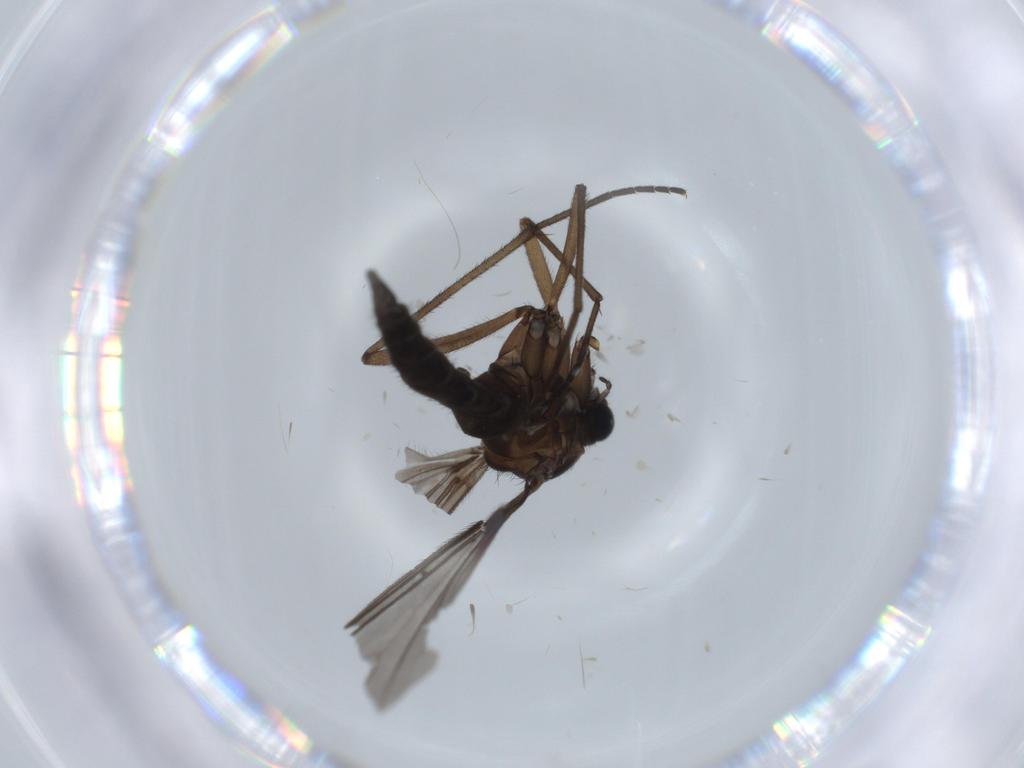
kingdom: Animalia
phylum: Arthropoda
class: Insecta
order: Diptera
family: Sciaridae
